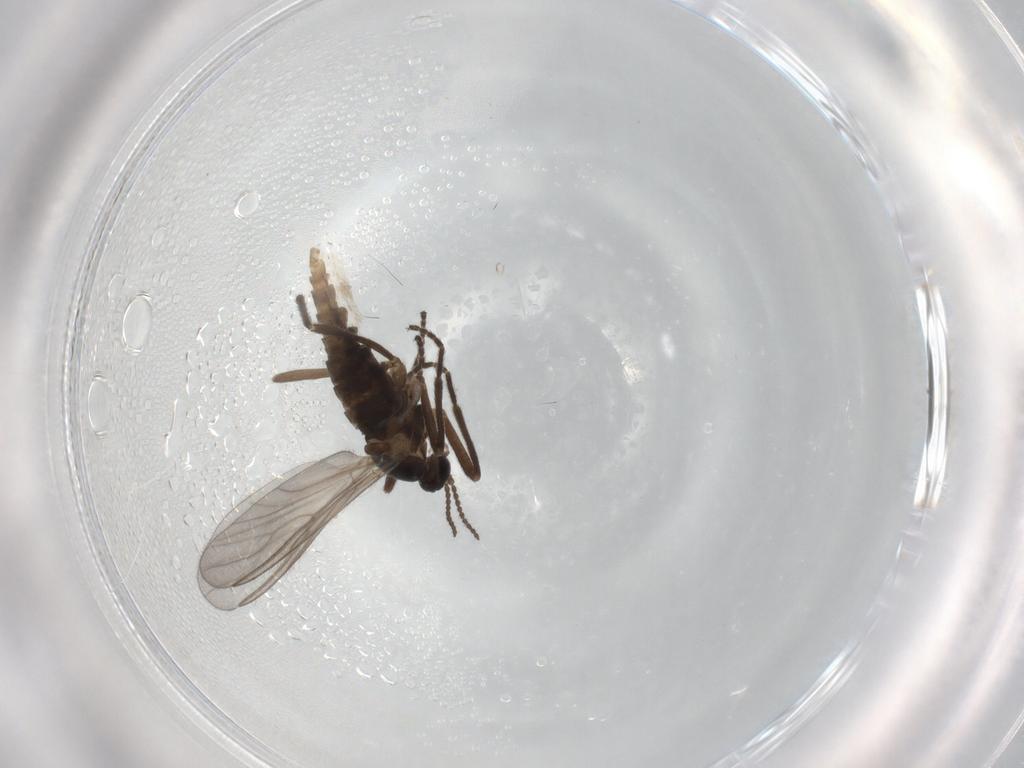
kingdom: Animalia
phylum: Arthropoda
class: Insecta
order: Diptera
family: Cecidomyiidae
